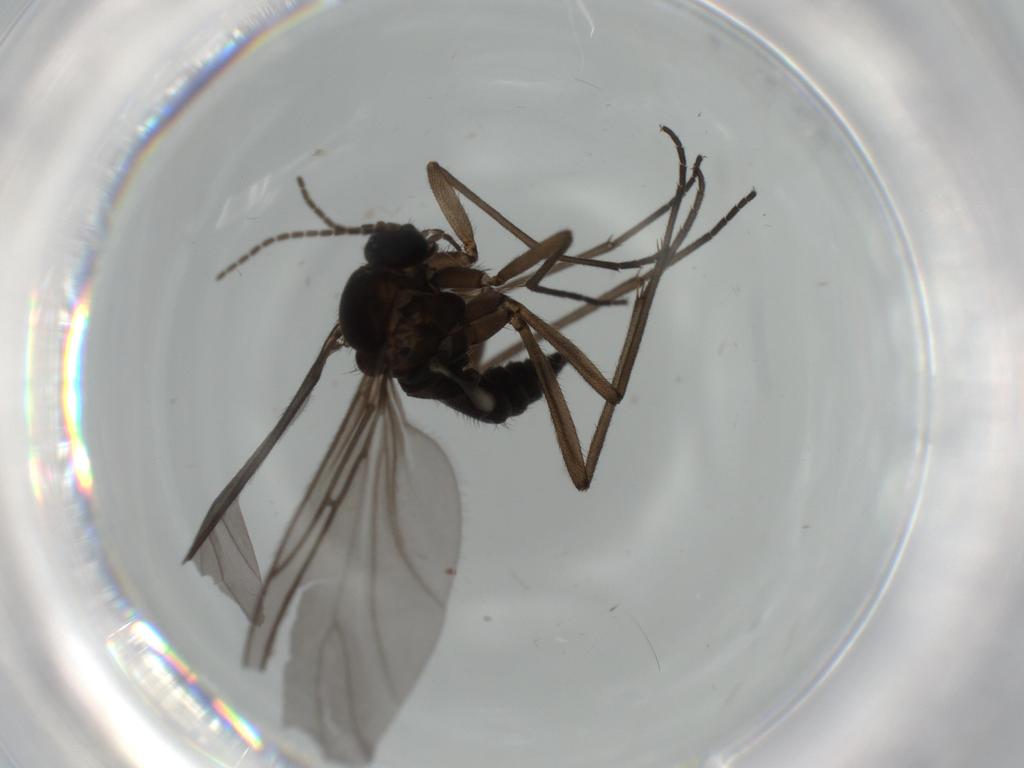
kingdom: Animalia
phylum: Arthropoda
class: Insecta
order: Diptera
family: Sciaridae
